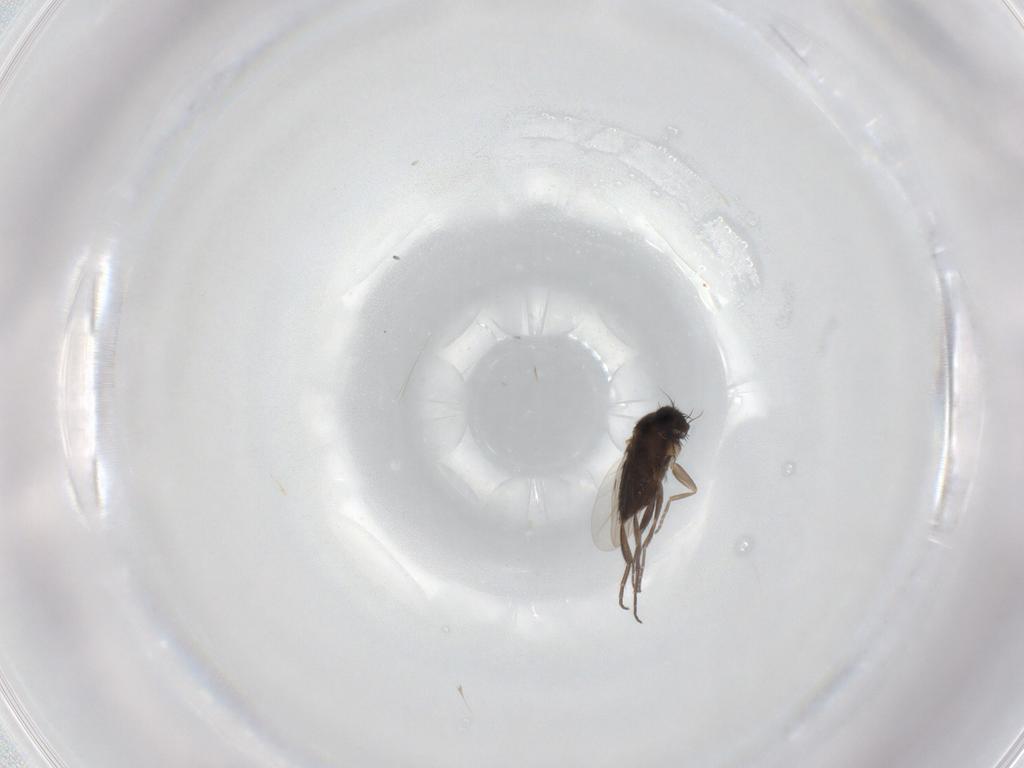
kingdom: Animalia
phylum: Arthropoda
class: Insecta
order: Diptera
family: Phoridae
